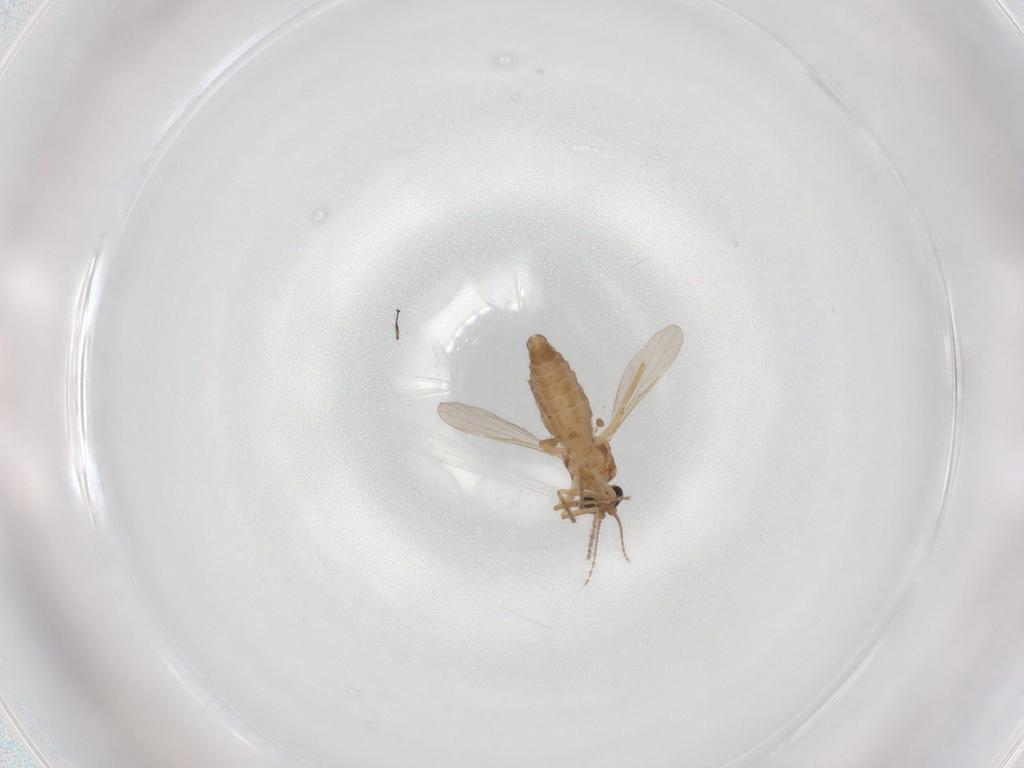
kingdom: Animalia
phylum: Arthropoda
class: Insecta
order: Diptera
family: Ceratopogonidae
